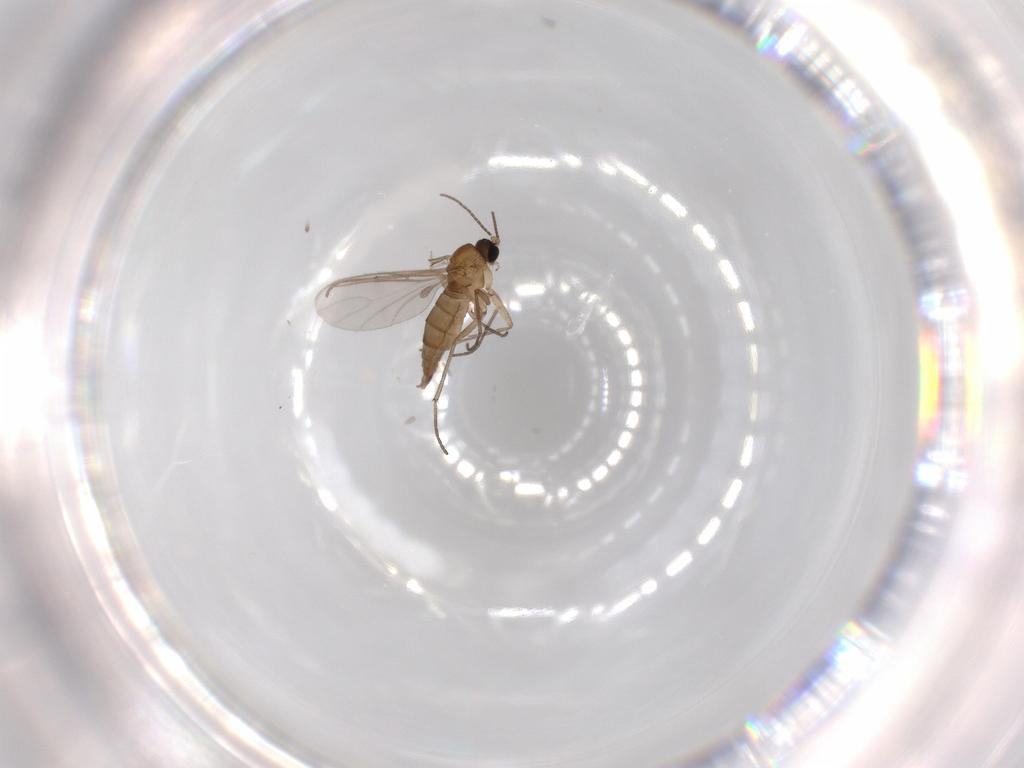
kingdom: Animalia
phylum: Arthropoda
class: Insecta
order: Diptera
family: Sciaridae
